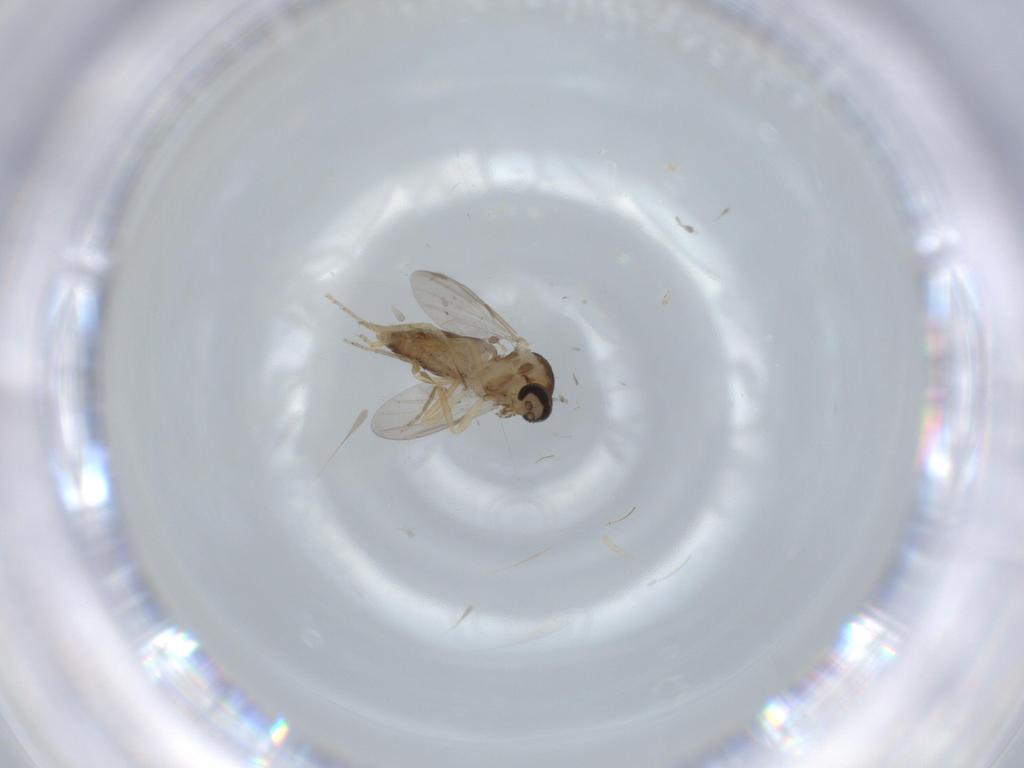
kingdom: Animalia
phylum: Arthropoda
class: Insecta
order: Diptera
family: Ceratopogonidae
